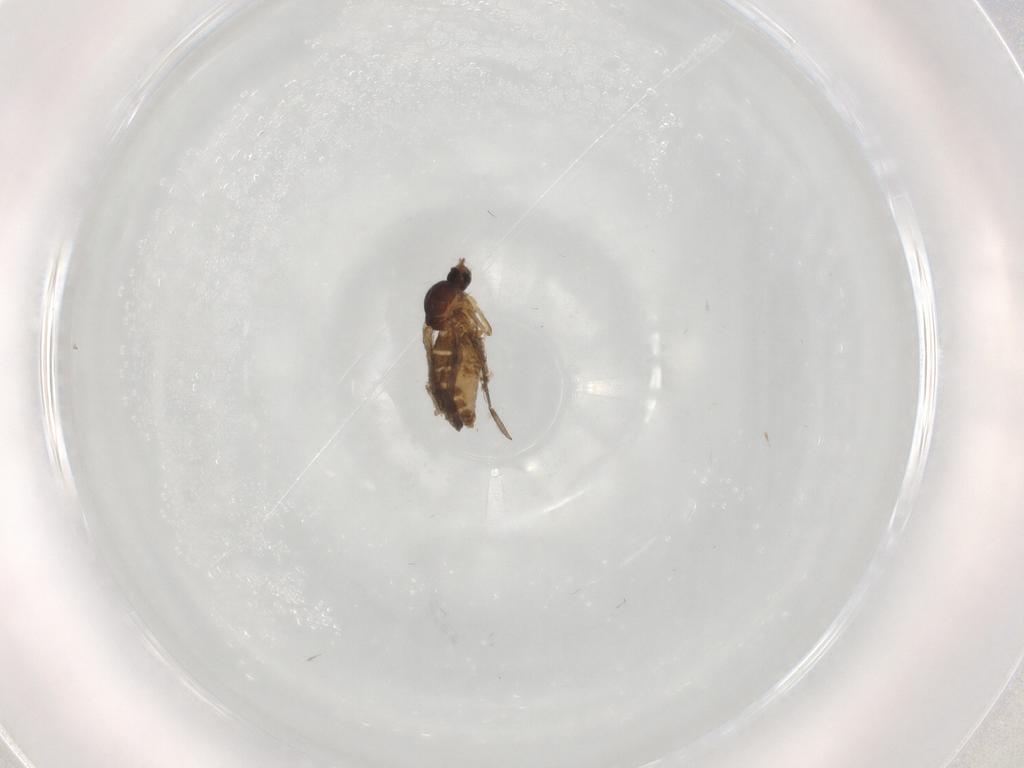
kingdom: Animalia
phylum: Arthropoda
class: Insecta
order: Diptera
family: Chironomidae
